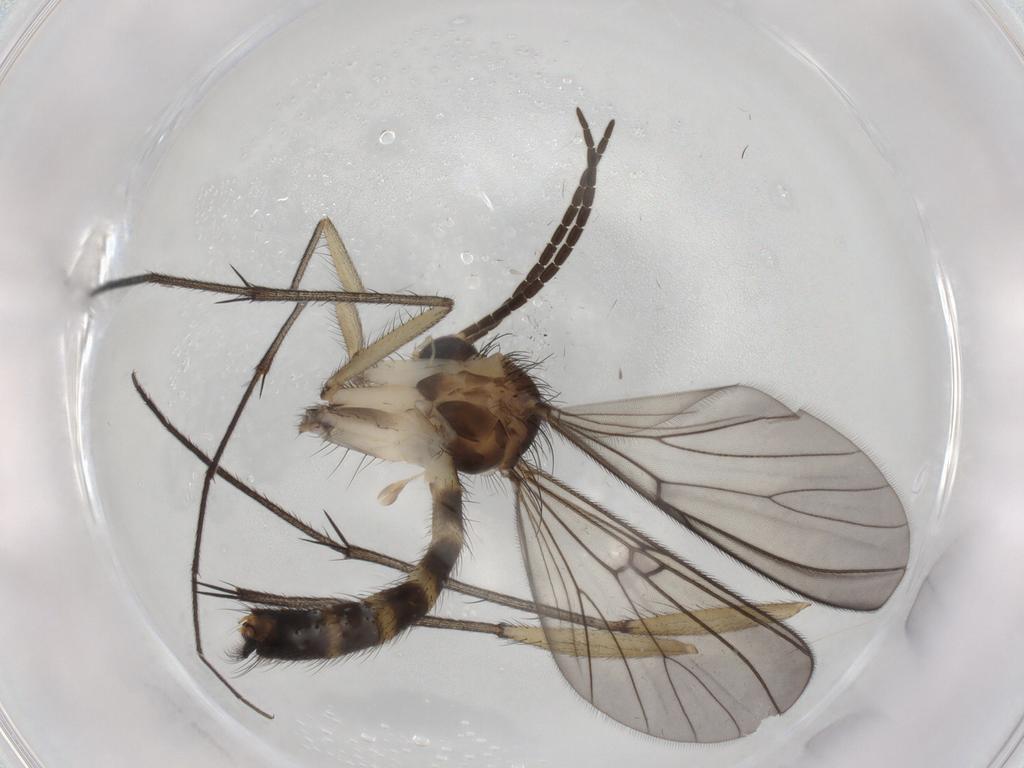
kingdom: Animalia
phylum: Arthropoda
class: Insecta
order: Diptera
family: Mycetophilidae
